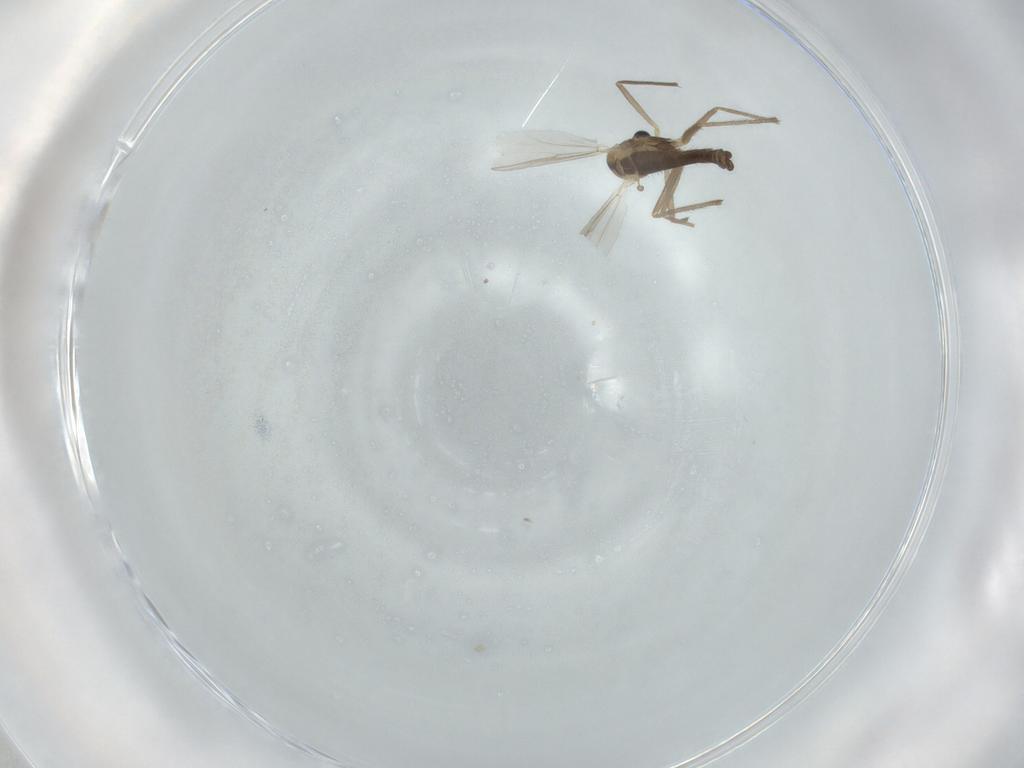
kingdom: Animalia
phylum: Arthropoda
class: Insecta
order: Diptera
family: Chironomidae
